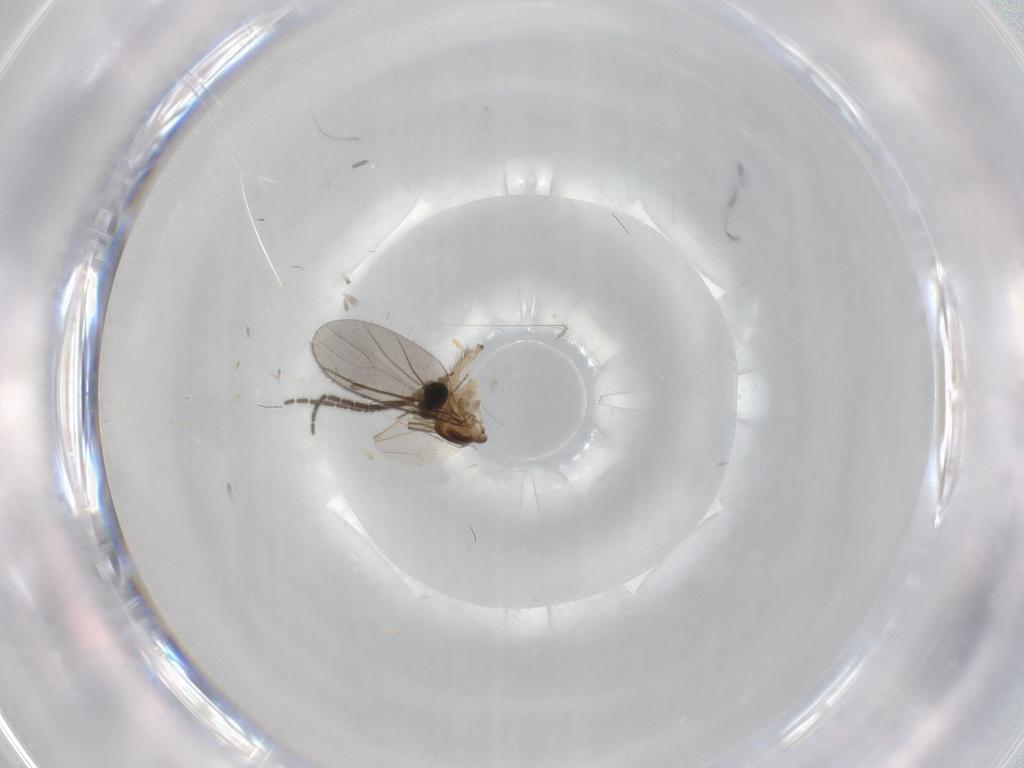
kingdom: Animalia
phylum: Arthropoda
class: Insecta
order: Diptera
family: Sciaridae
